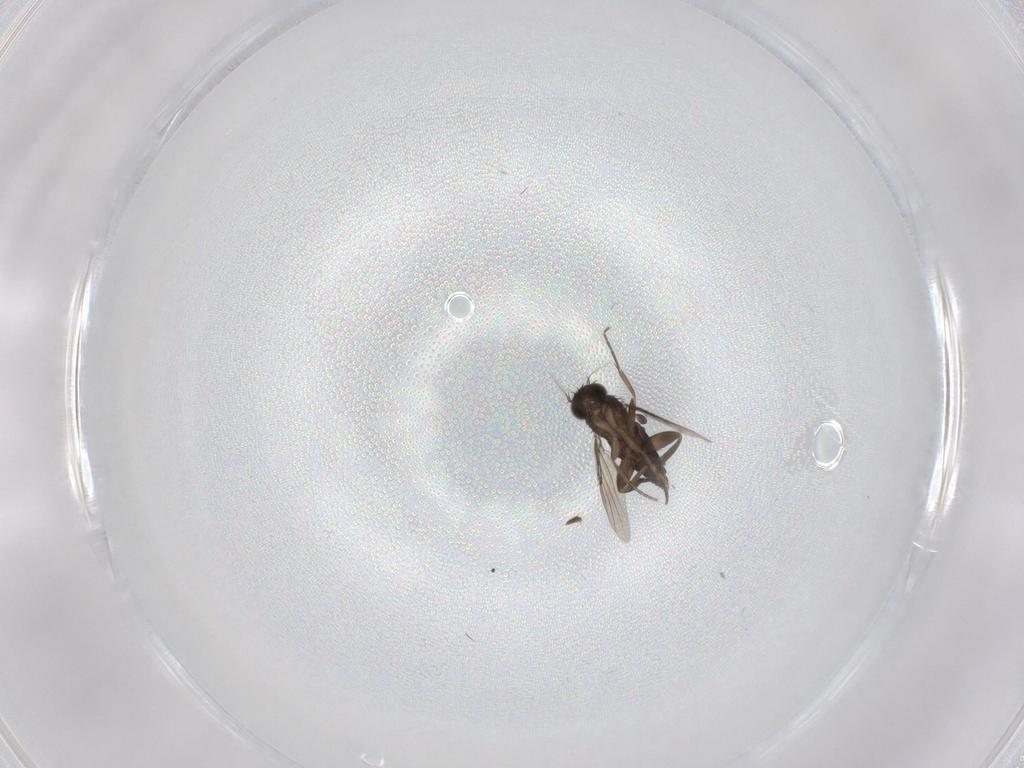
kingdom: Animalia
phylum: Arthropoda
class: Insecta
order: Diptera
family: Phoridae
